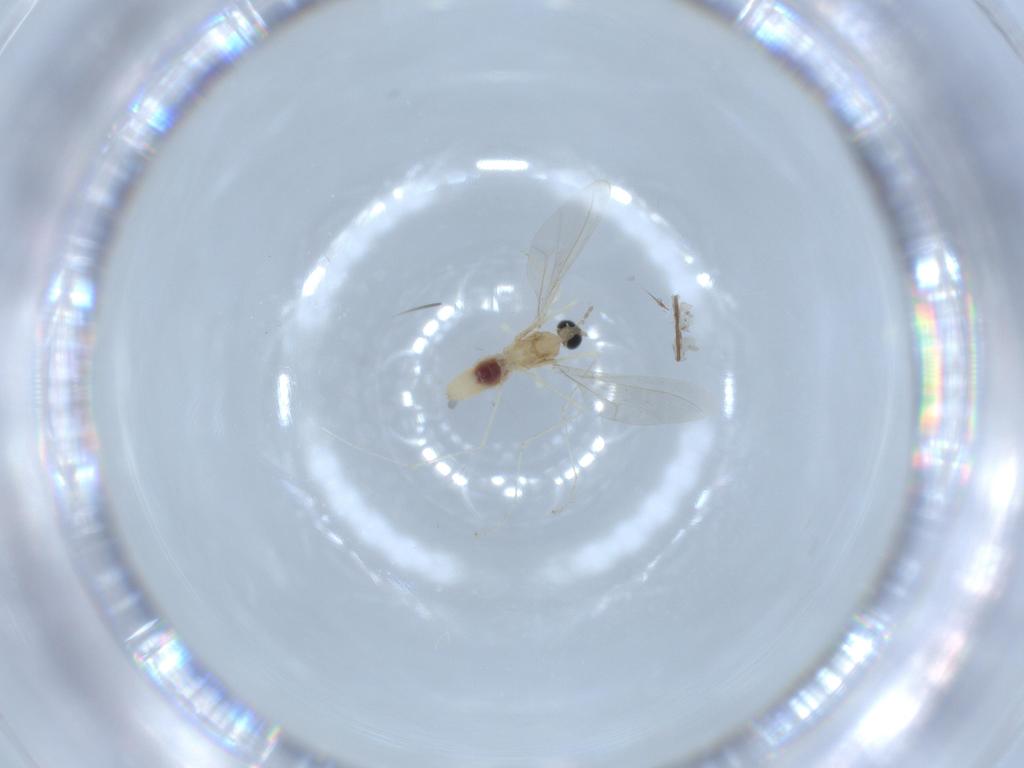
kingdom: Animalia
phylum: Arthropoda
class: Insecta
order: Diptera
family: Cecidomyiidae
